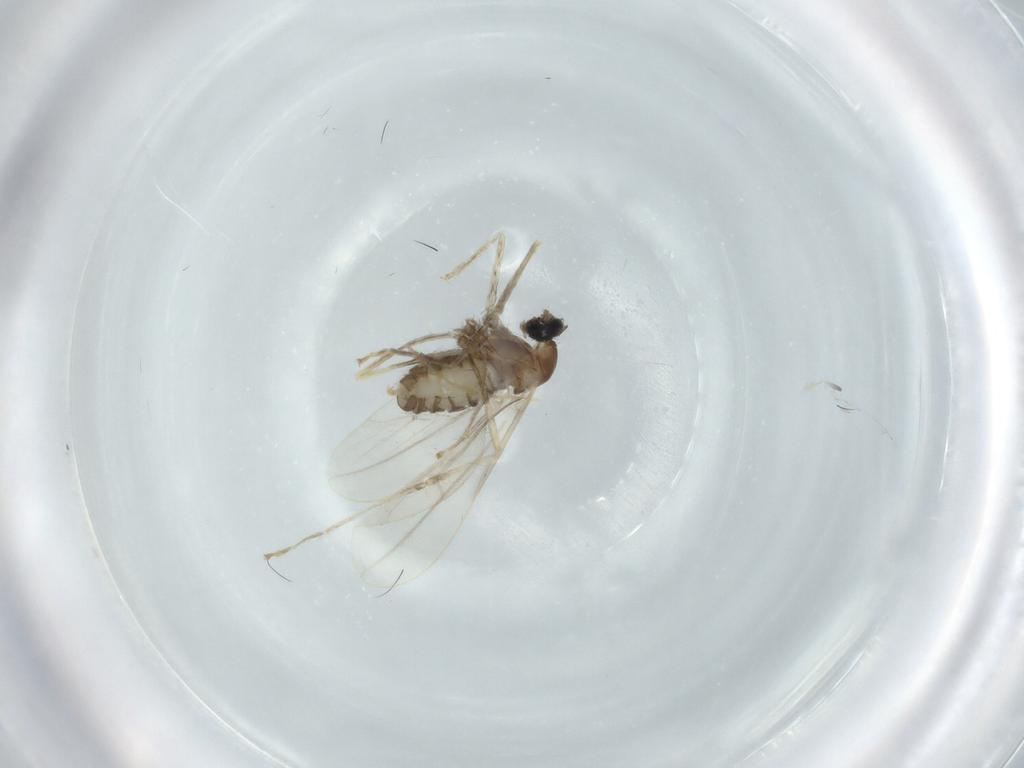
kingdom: Animalia
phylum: Arthropoda
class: Insecta
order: Diptera
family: Cecidomyiidae
